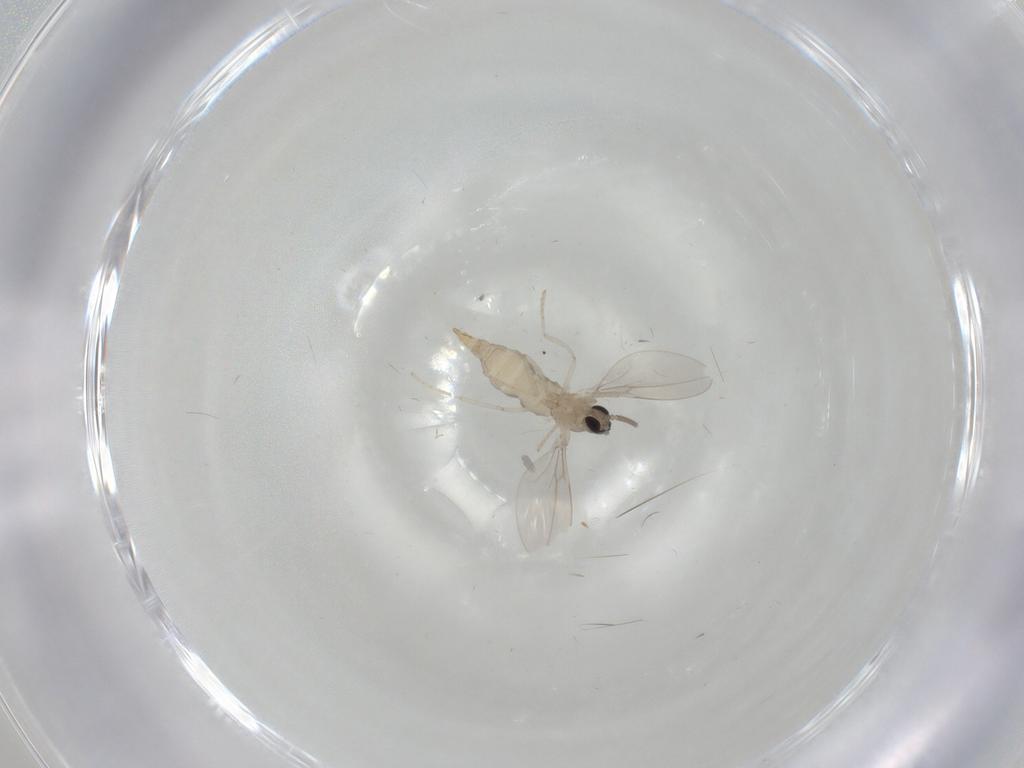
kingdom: Animalia
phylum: Arthropoda
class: Insecta
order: Diptera
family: Cecidomyiidae
